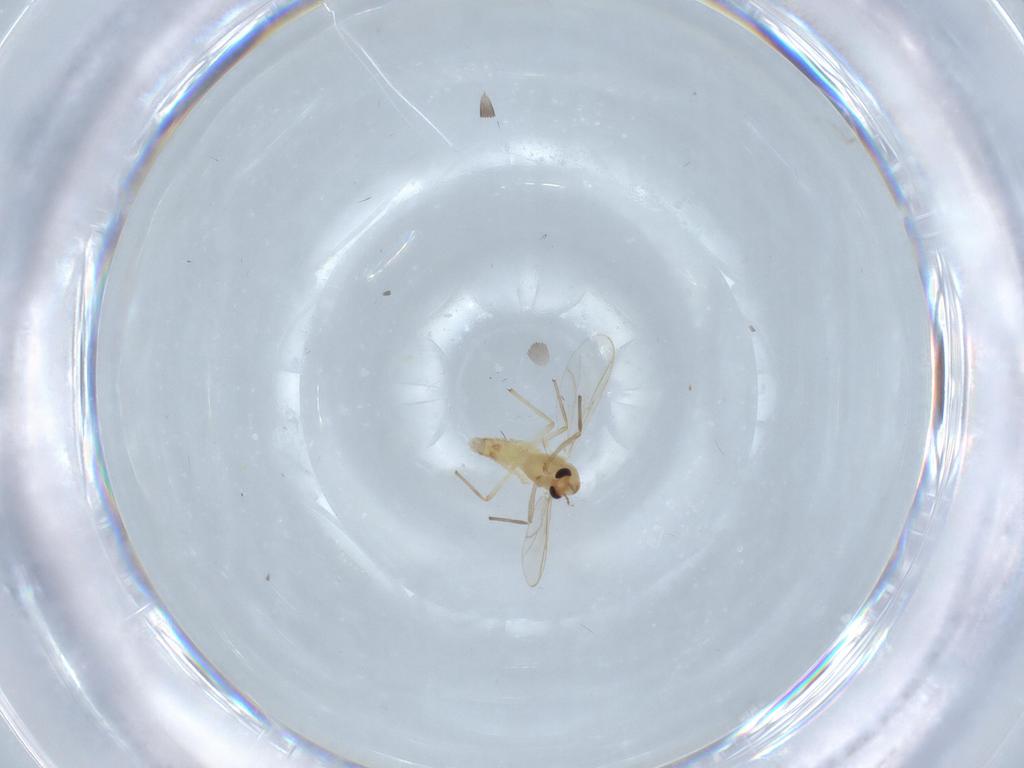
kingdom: Animalia
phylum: Arthropoda
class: Insecta
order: Diptera
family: Chironomidae
